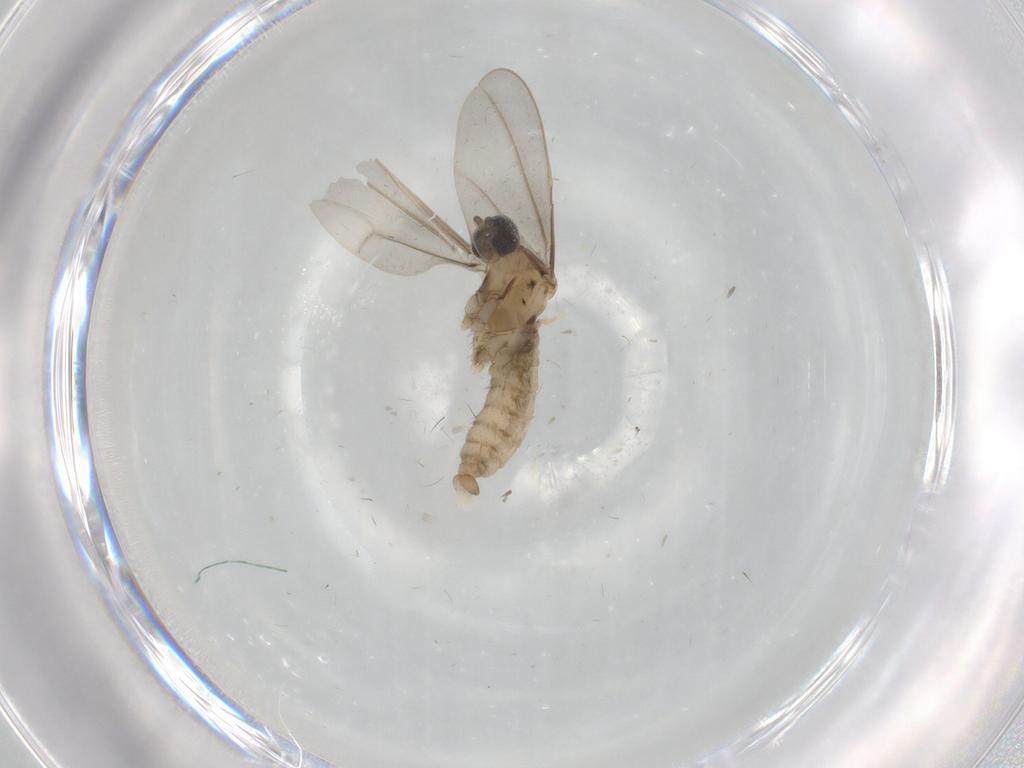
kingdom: Animalia
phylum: Arthropoda
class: Insecta
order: Diptera
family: Cecidomyiidae
